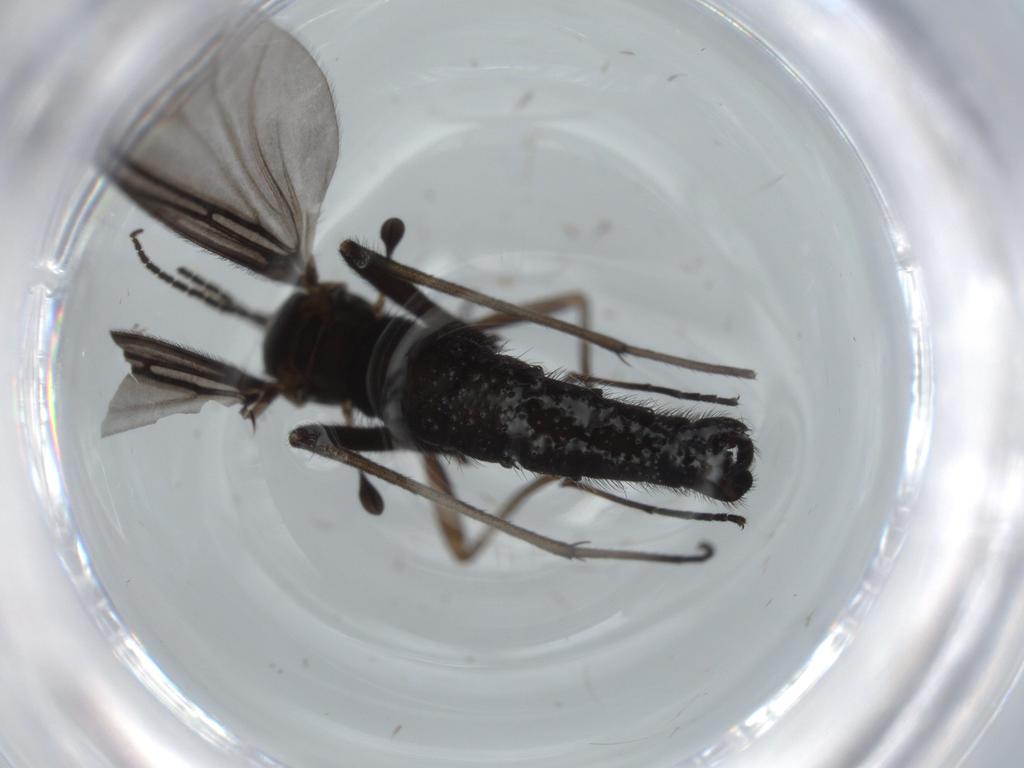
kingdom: Animalia
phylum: Arthropoda
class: Insecta
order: Diptera
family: Sciaridae
